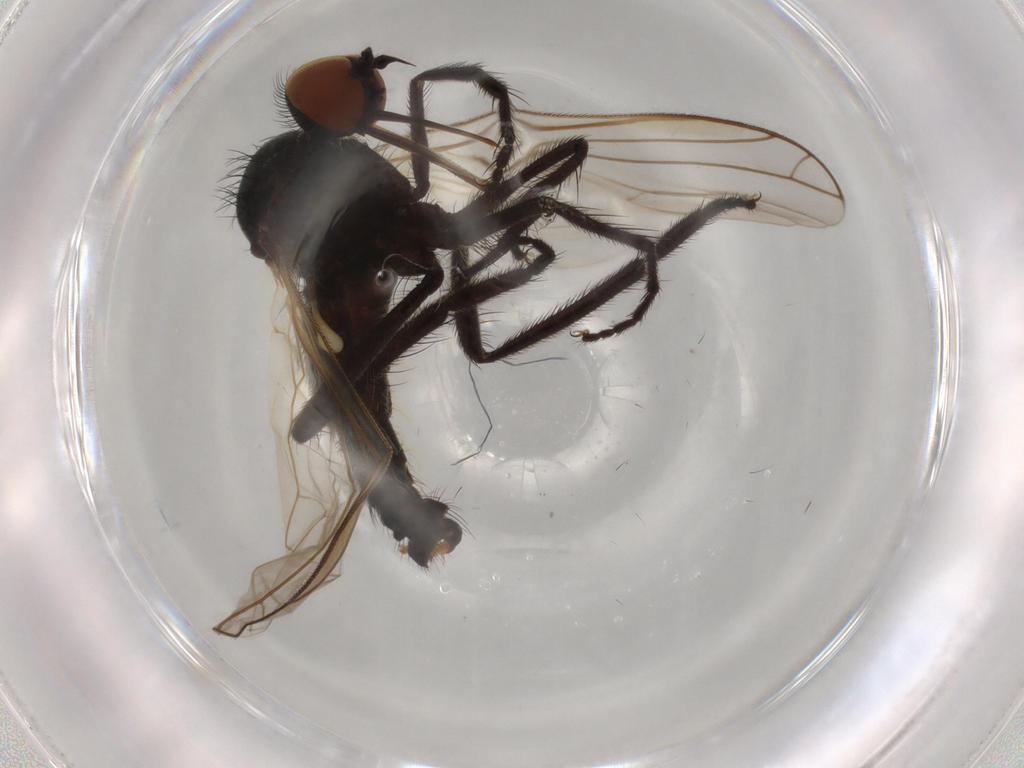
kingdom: Animalia
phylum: Arthropoda
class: Insecta
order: Diptera
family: Empididae
